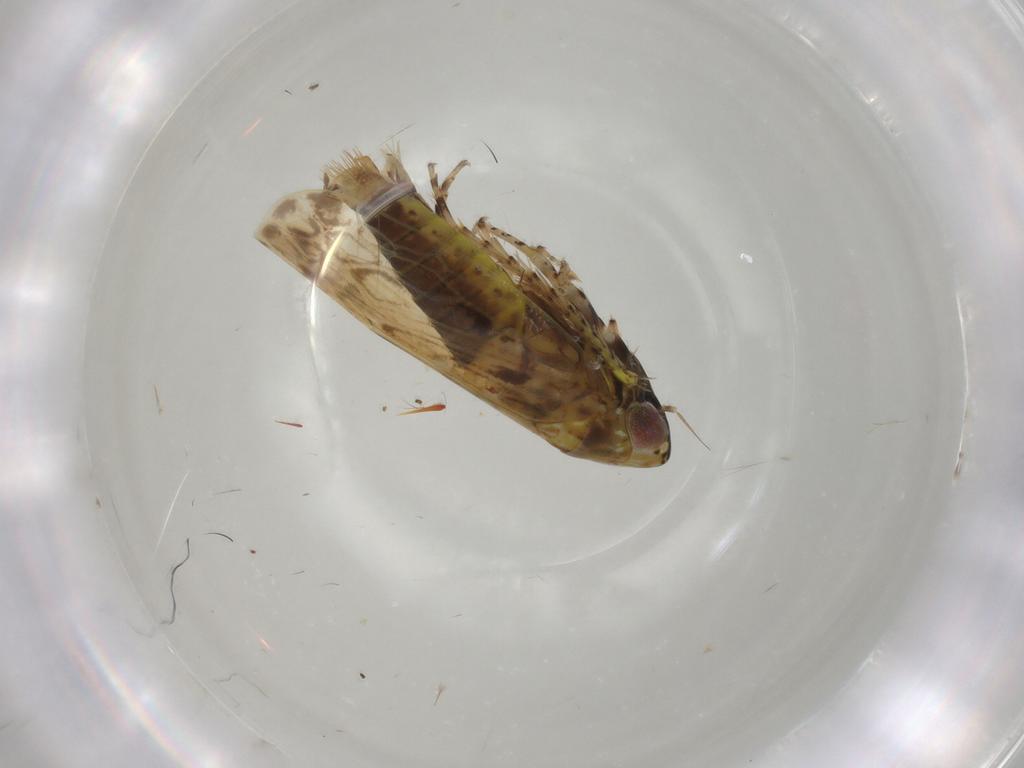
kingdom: Animalia
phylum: Arthropoda
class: Insecta
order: Hemiptera
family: Cicadellidae
